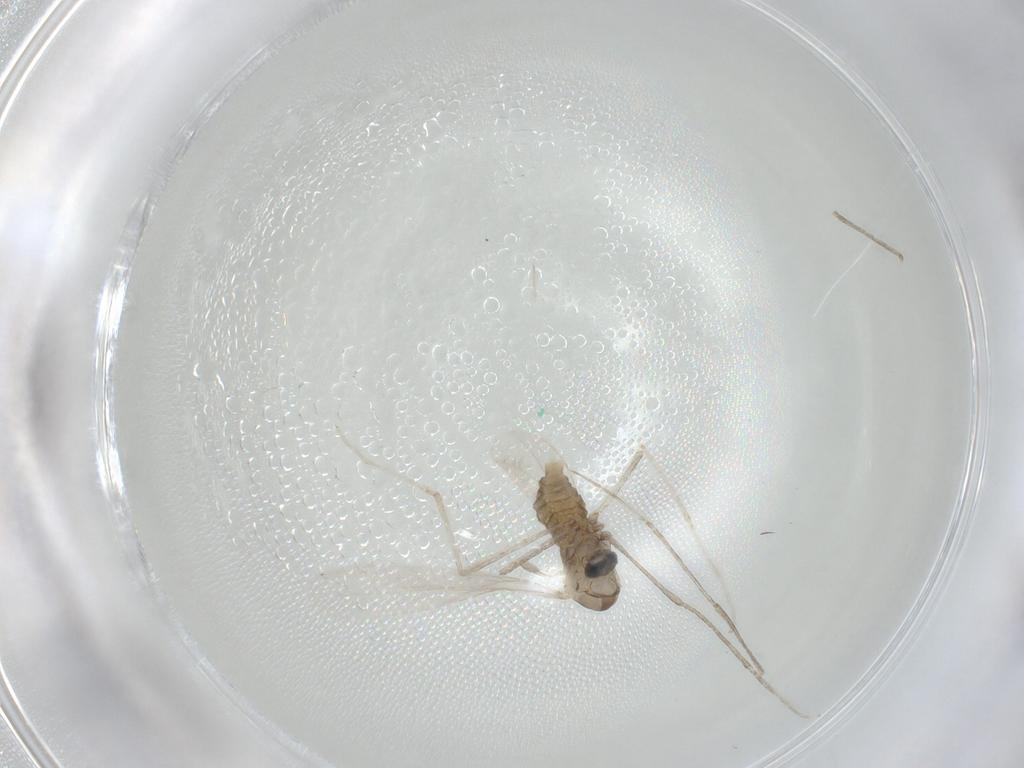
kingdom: Animalia
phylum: Arthropoda
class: Insecta
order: Diptera
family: Cecidomyiidae
